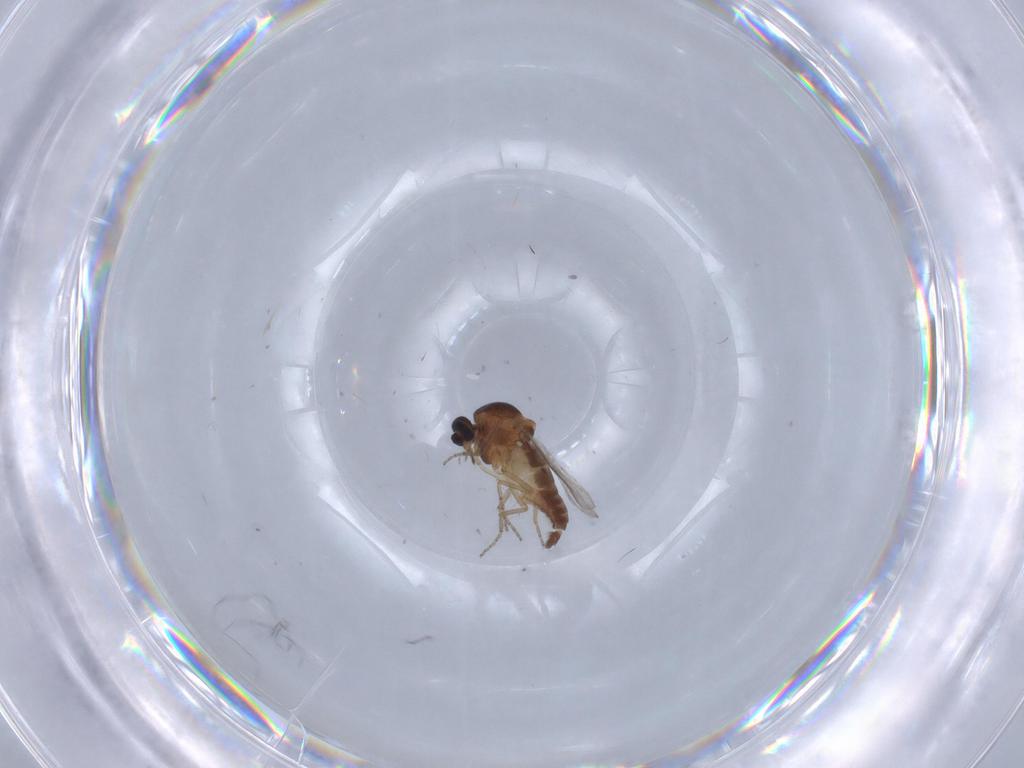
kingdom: Animalia
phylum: Arthropoda
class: Insecta
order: Diptera
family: Ceratopogonidae
